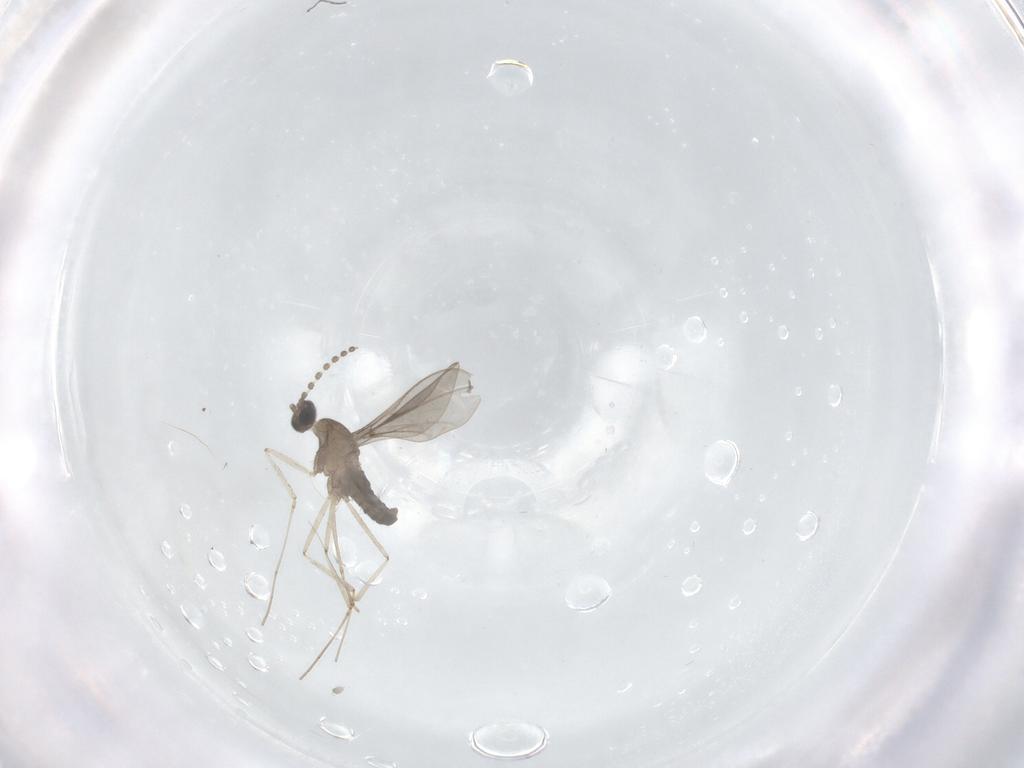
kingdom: Animalia
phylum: Arthropoda
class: Insecta
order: Diptera
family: Cecidomyiidae
